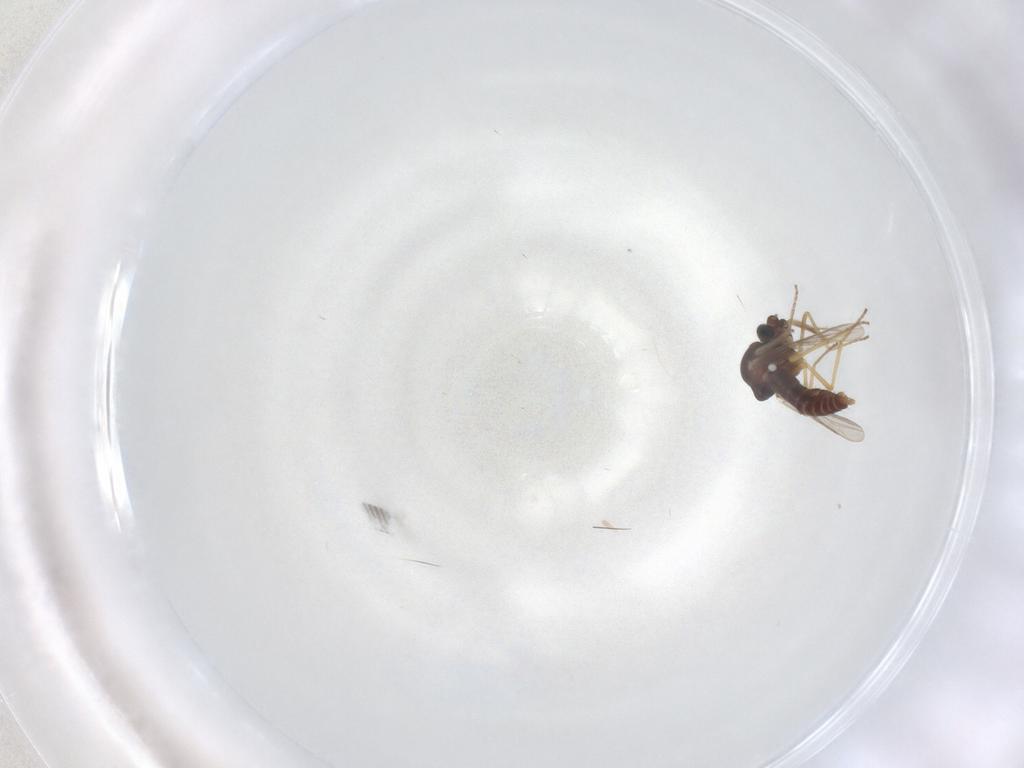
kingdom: Animalia
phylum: Arthropoda
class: Insecta
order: Diptera
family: Ceratopogonidae
